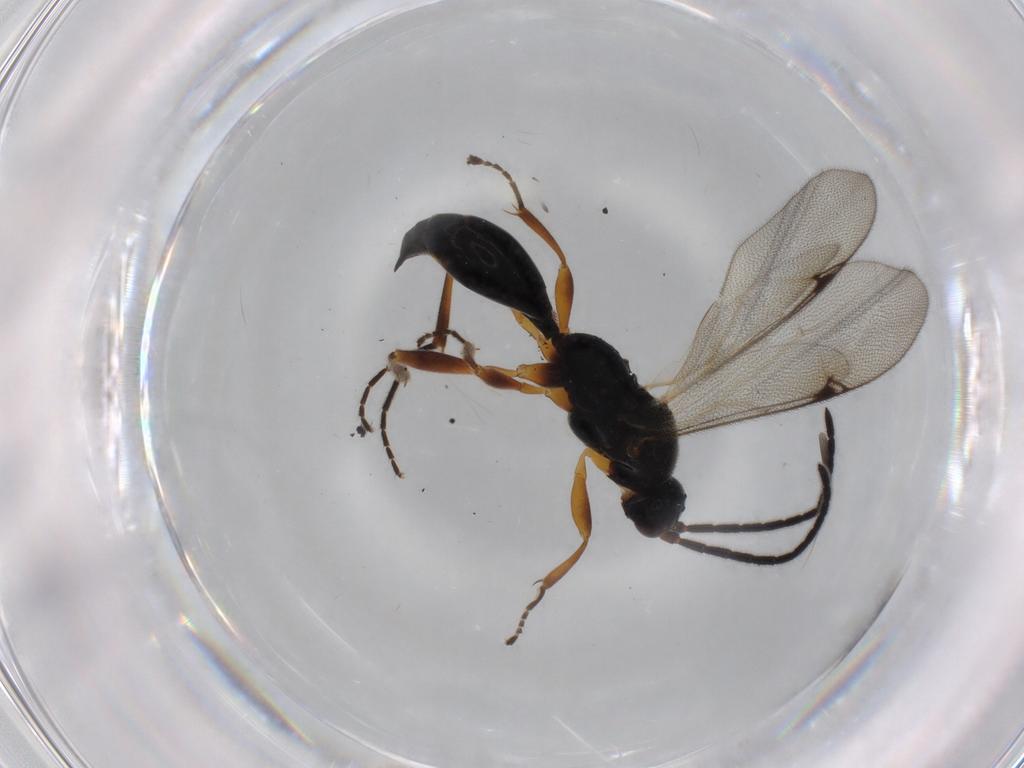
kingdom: Animalia
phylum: Arthropoda
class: Insecta
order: Hymenoptera
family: Proctotrupidae
